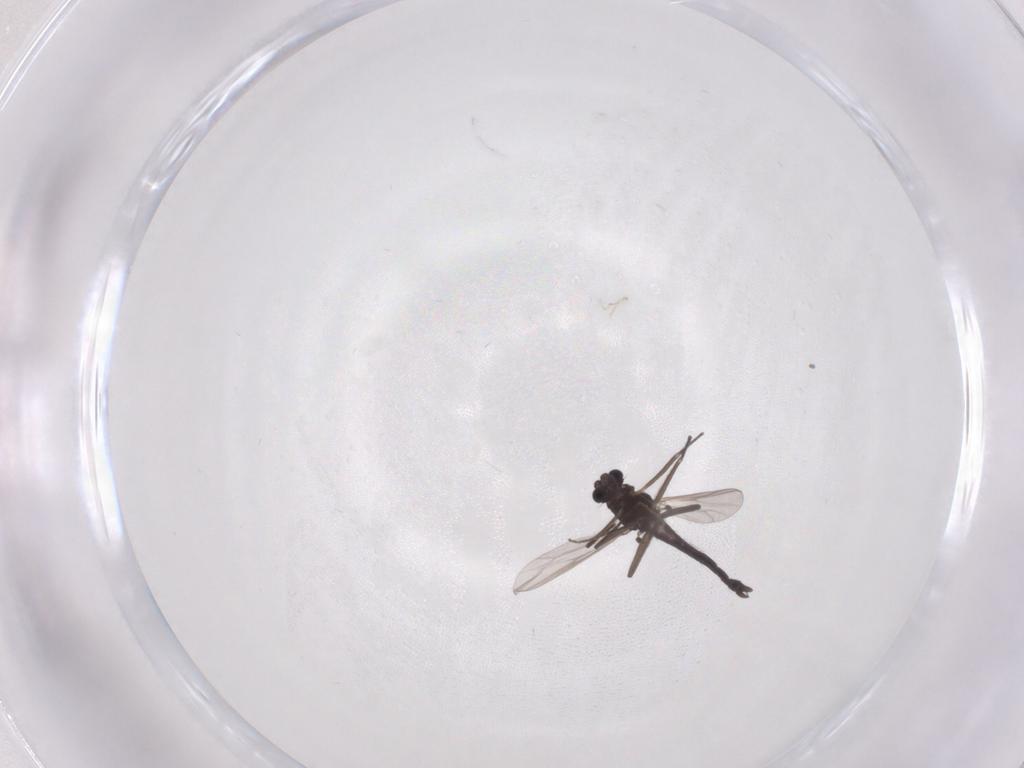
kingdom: Animalia
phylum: Arthropoda
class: Insecta
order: Diptera
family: Chironomidae
